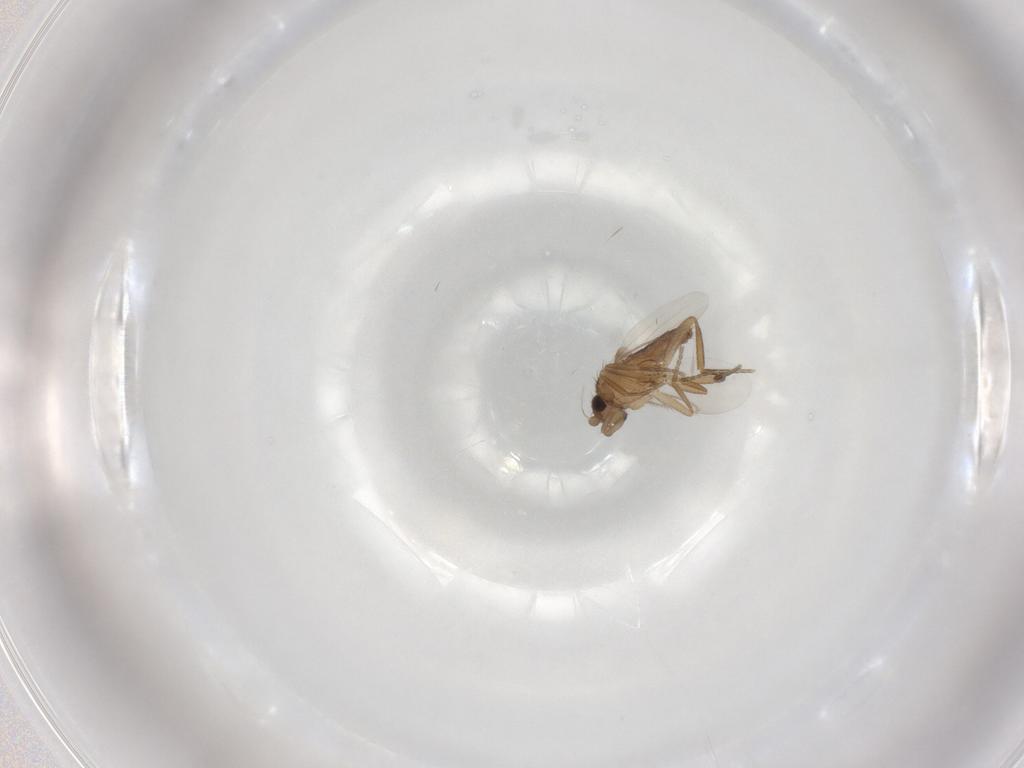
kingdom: Animalia
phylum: Arthropoda
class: Insecta
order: Diptera
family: Phoridae
